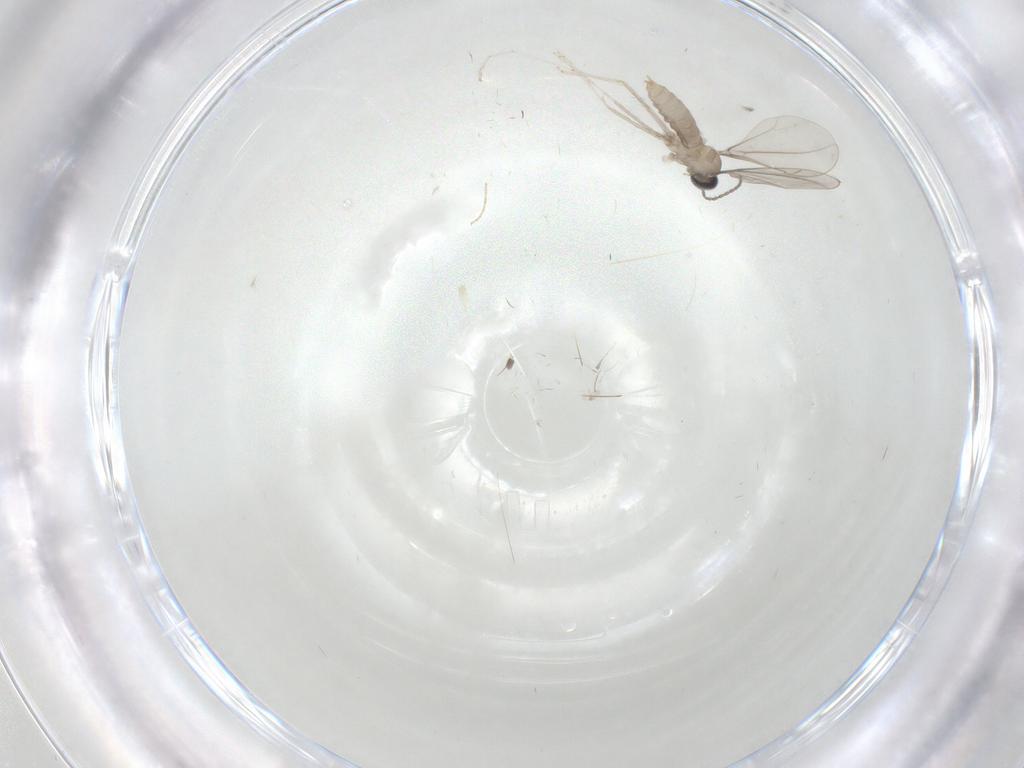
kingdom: Animalia
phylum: Arthropoda
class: Insecta
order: Diptera
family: Cecidomyiidae
